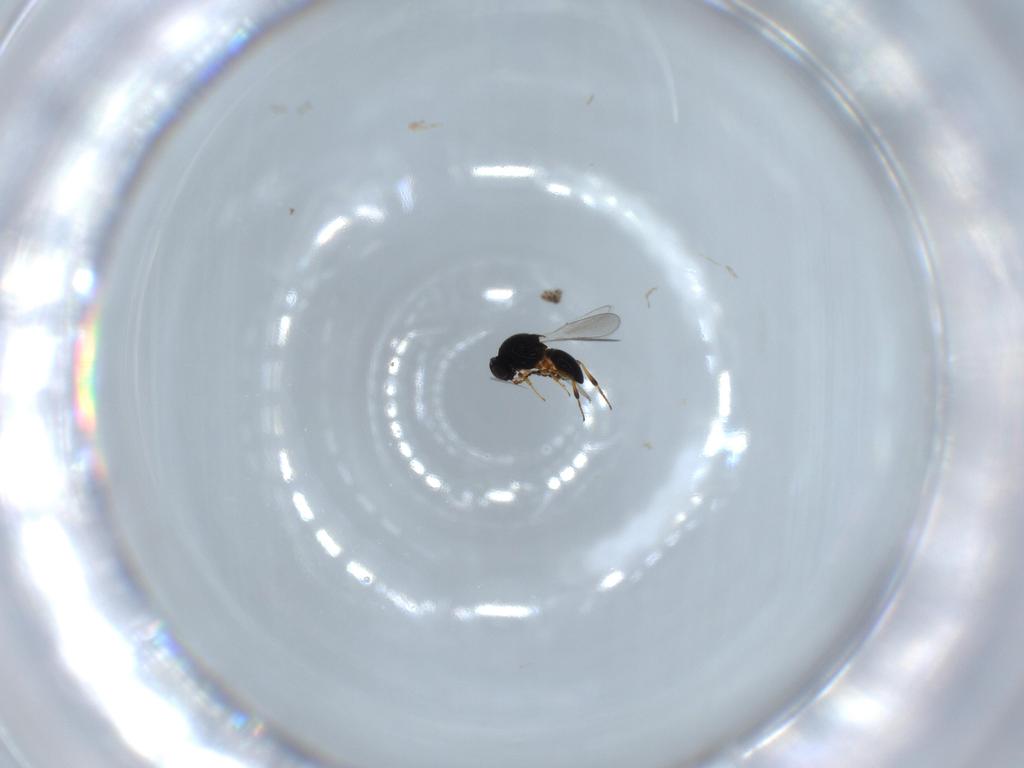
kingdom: Animalia
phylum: Arthropoda
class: Insecta
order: Hymenoptera
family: Platygastridae
